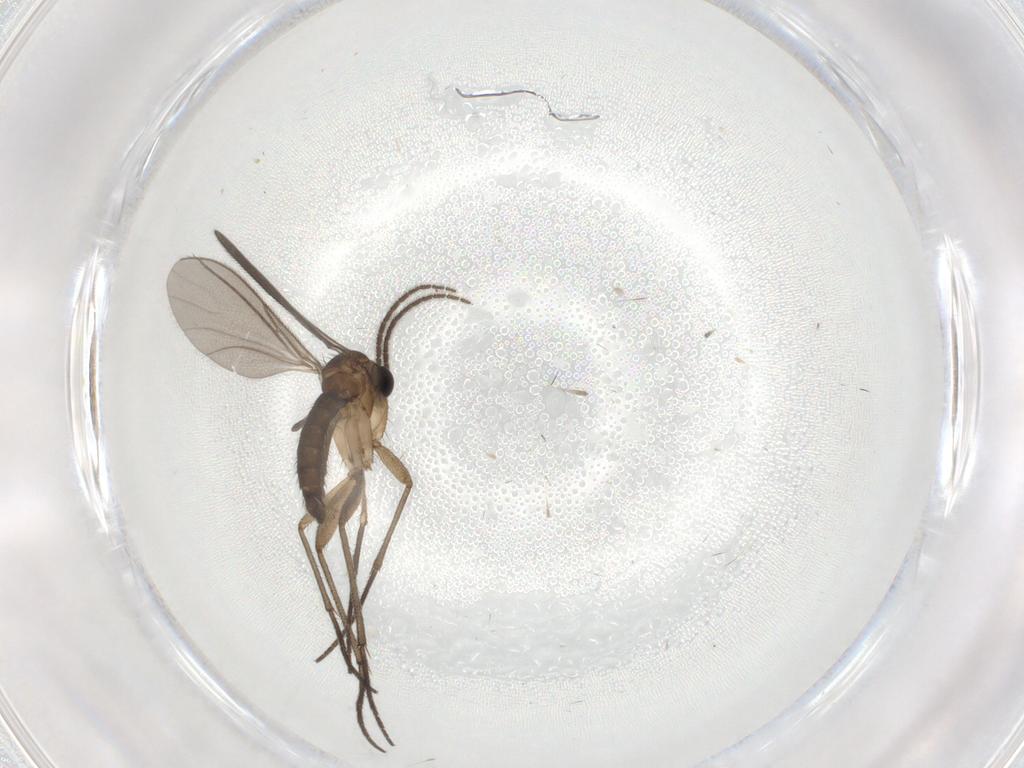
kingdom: Animalia
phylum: Arthropoda
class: Insecta
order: Diptera
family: Sciaridae
